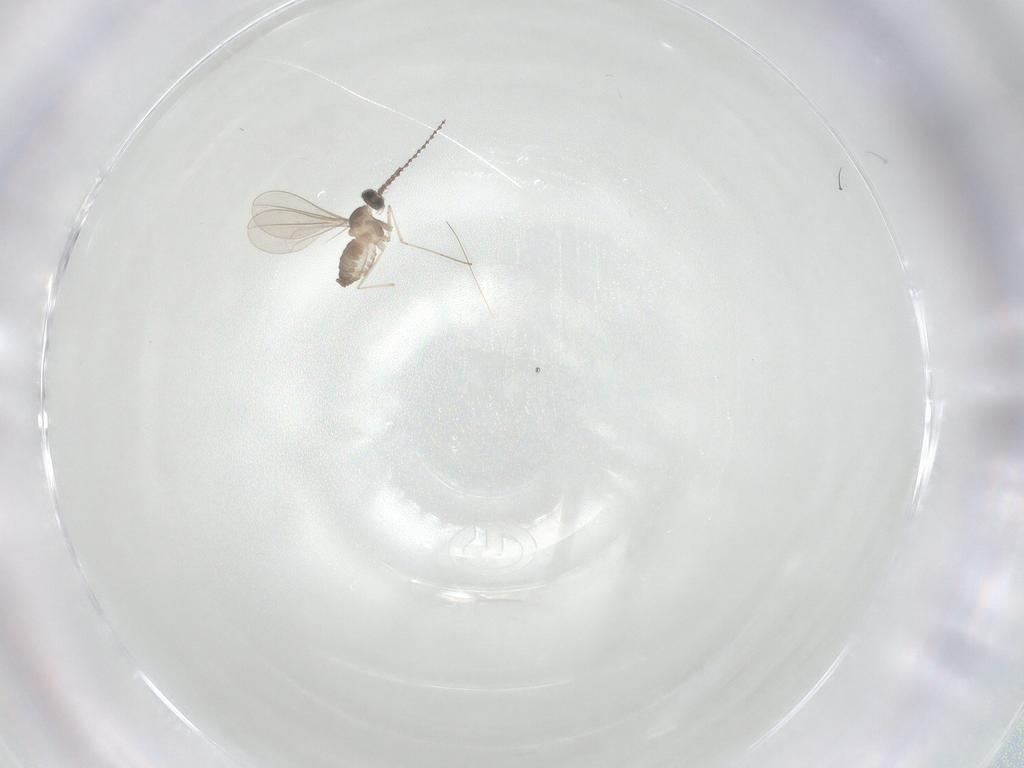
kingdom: Animalia
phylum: Arthropoda
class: Insecta
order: Diptera
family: Cecidomyiidae
